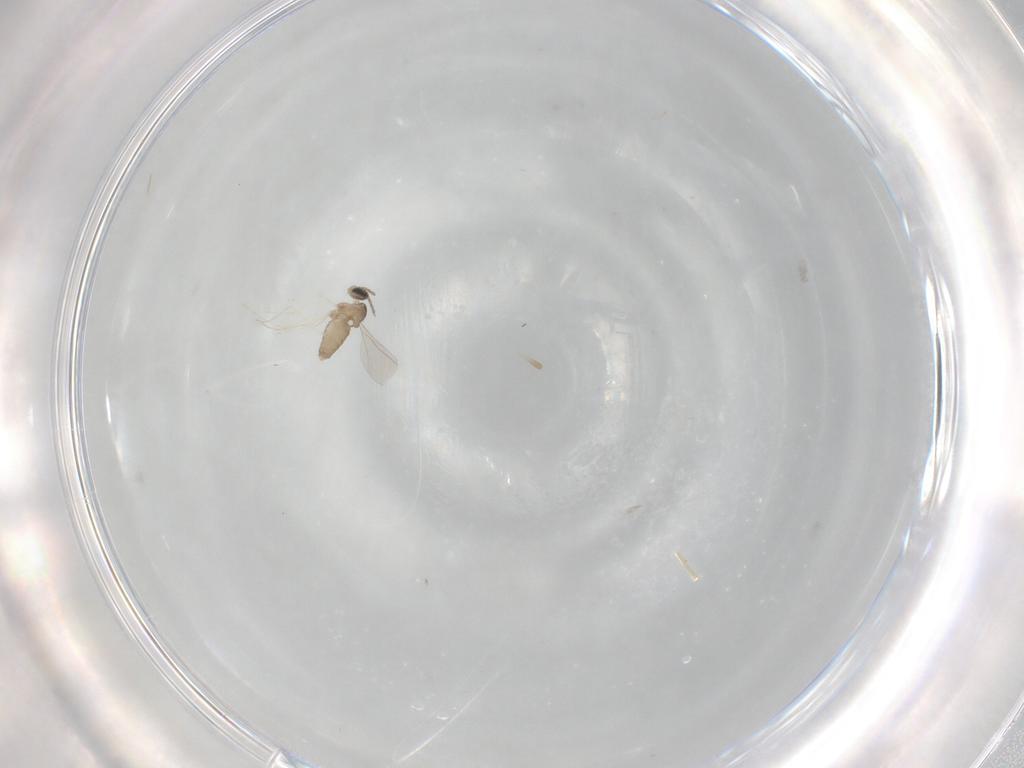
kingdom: Animalia
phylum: Arthropoda
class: Insecta
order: Diptera
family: Cecidomyiidae
